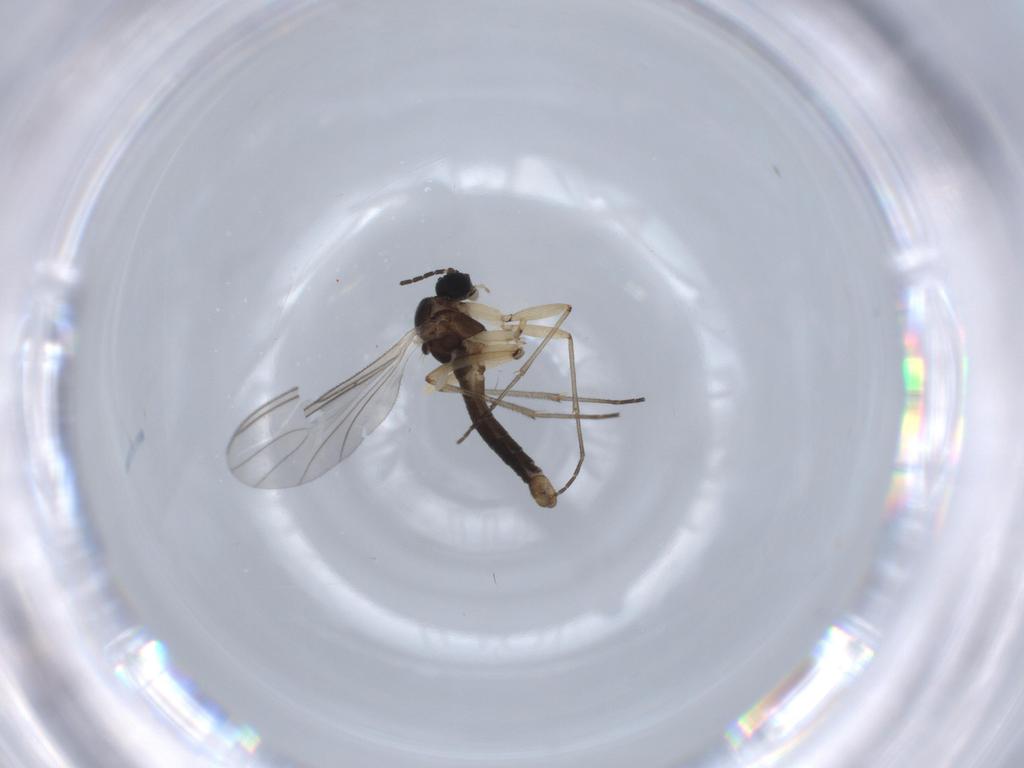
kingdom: Animalia
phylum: Arthropoda
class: Insecta
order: Diptera
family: Sciaridae
